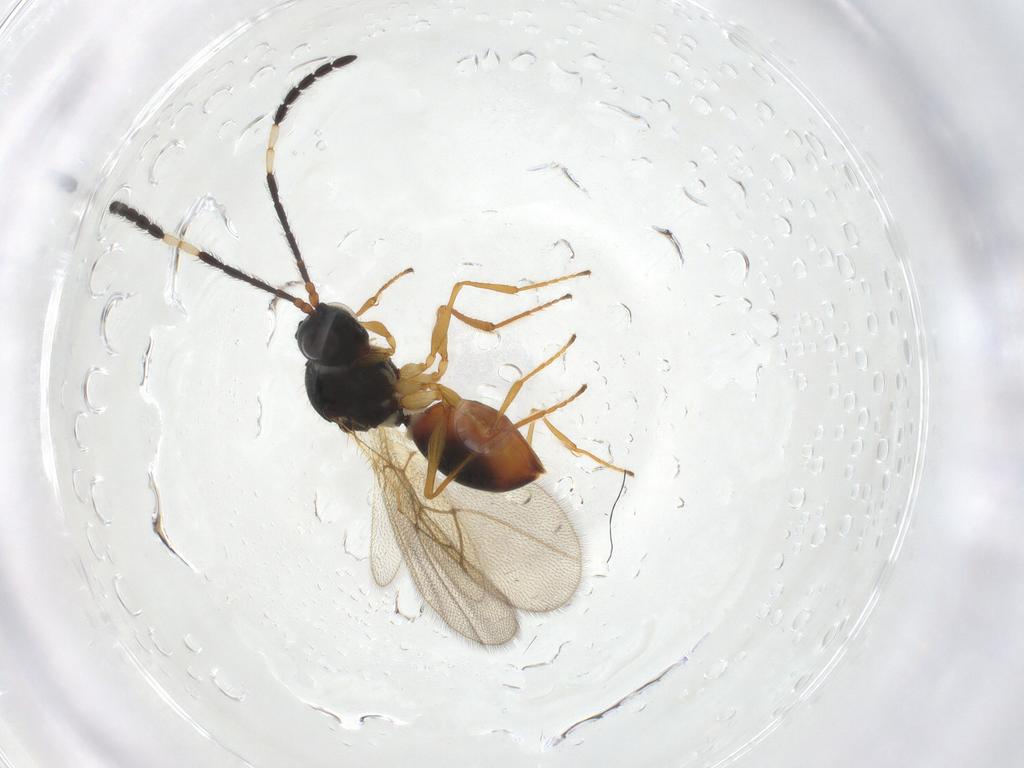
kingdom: Animalia
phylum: Arthropoda
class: Insecta
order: Hymenoptera
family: Figitidae
